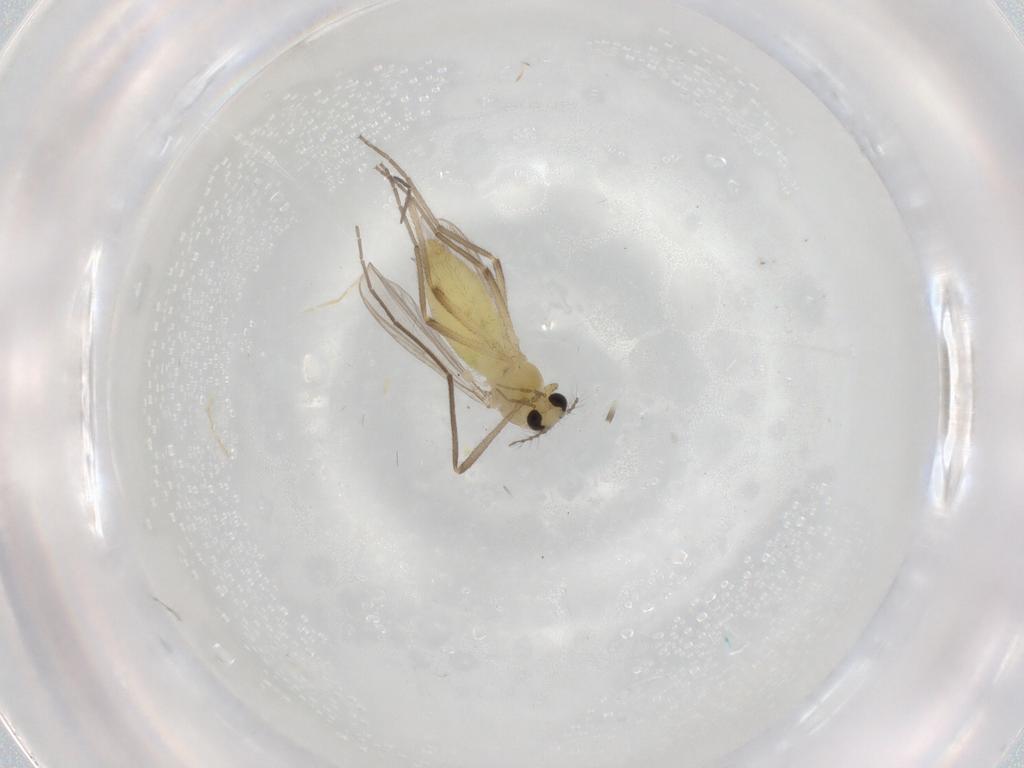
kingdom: Animalia
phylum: Arthropoda
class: Insecta
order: Diptera
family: Chironomidae
